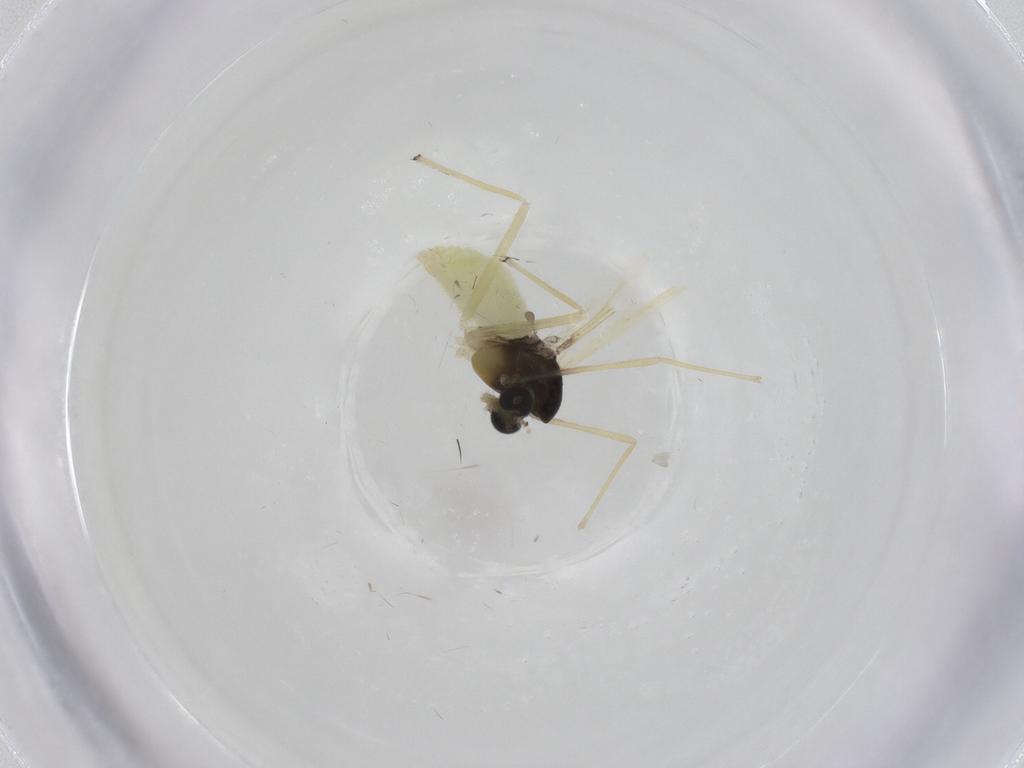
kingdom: Animalia
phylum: Arthropoda
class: Insecta
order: Diptera
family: Chironomidae
